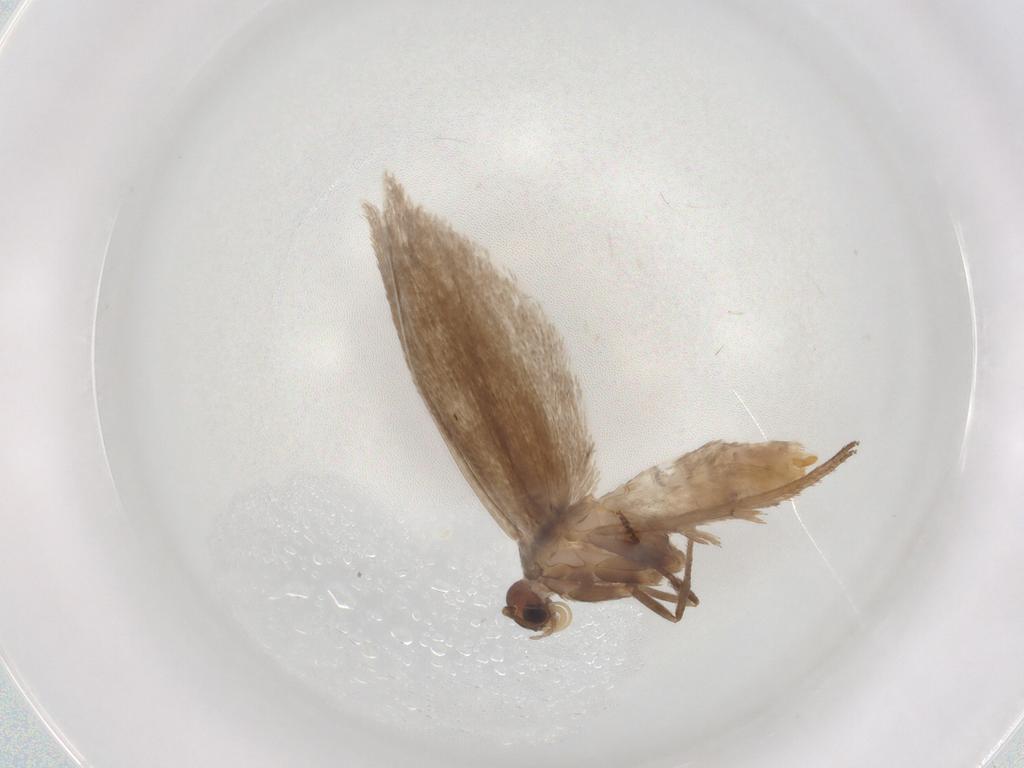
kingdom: Animalia
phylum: Arthropoda
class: Insecta
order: Lepidoptera
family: Limacodidae
